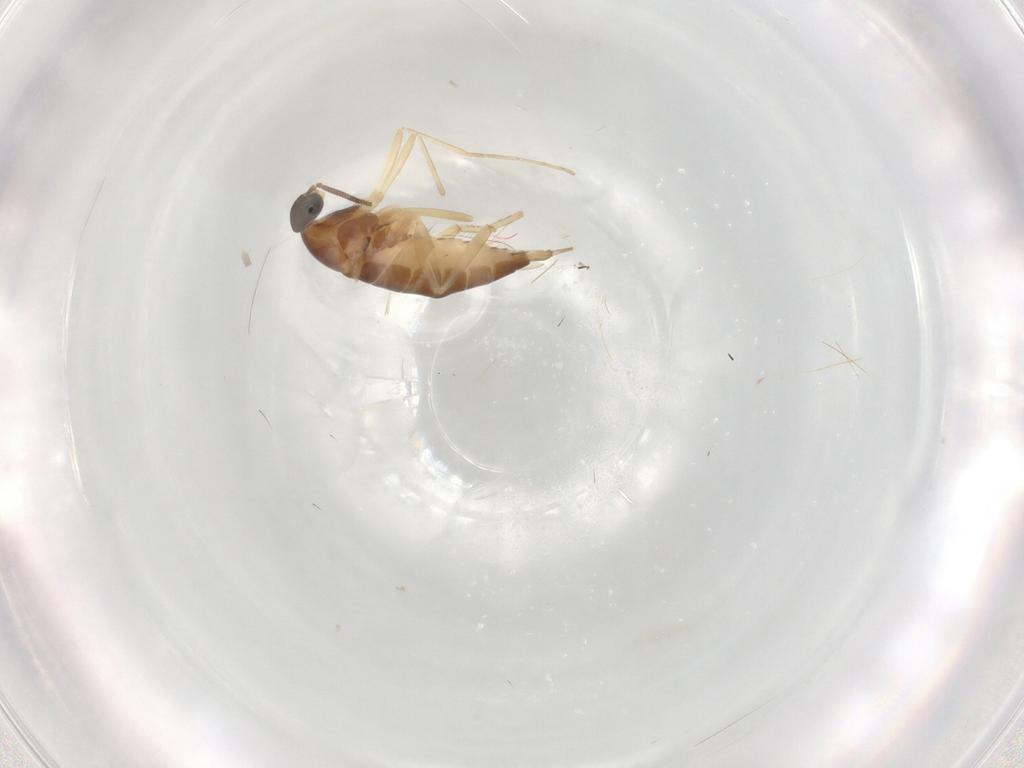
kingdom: Animalia
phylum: Arthropoda
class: Insecta
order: Diptera
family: Cecidomyiidae
